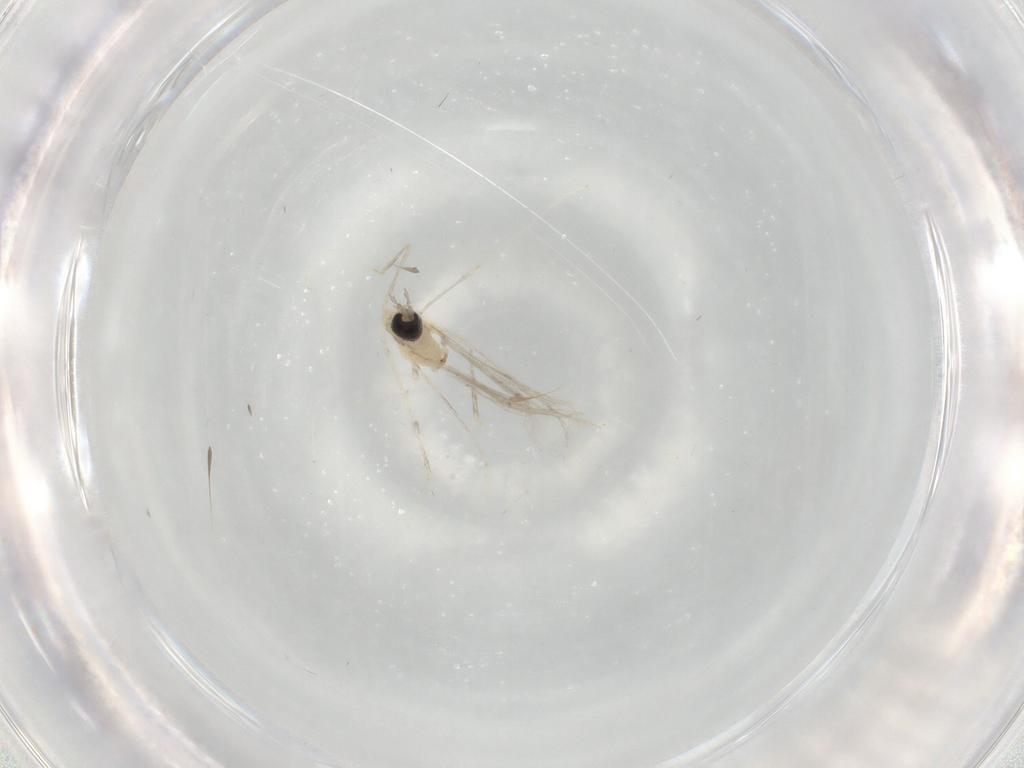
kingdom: Animalia
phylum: Arthropoda
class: Insecta
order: Diptera
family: Cecidomyiidae
